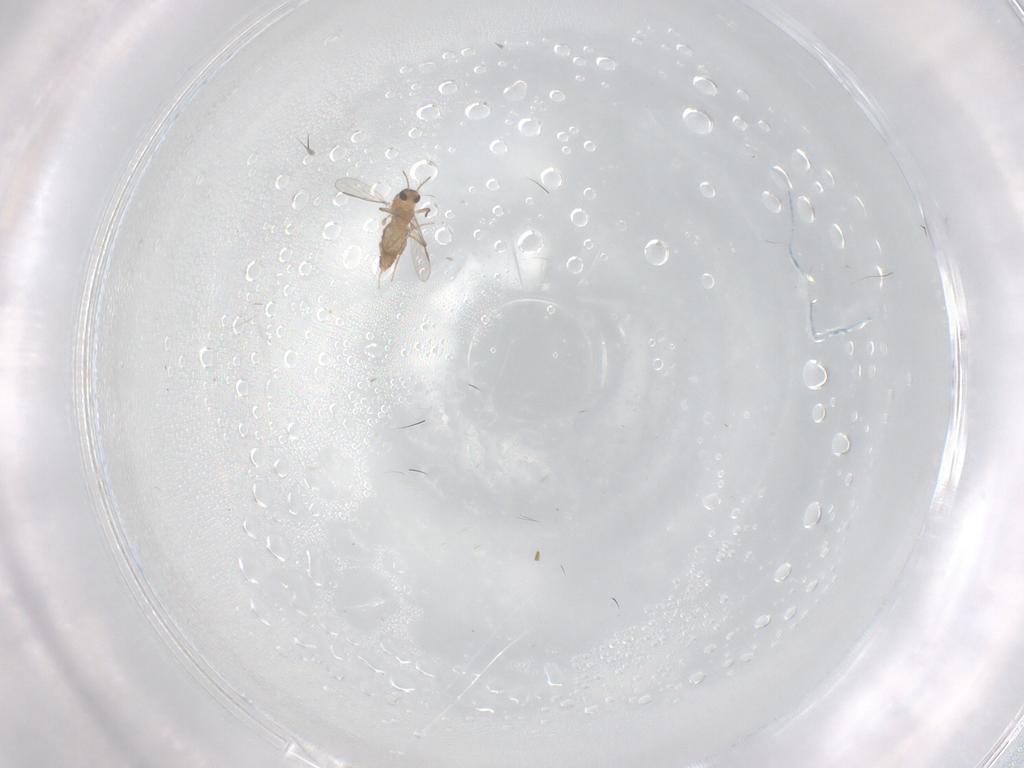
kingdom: Animalia
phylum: Arthropoda
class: Insecta
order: Diptera
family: Chironomidae
